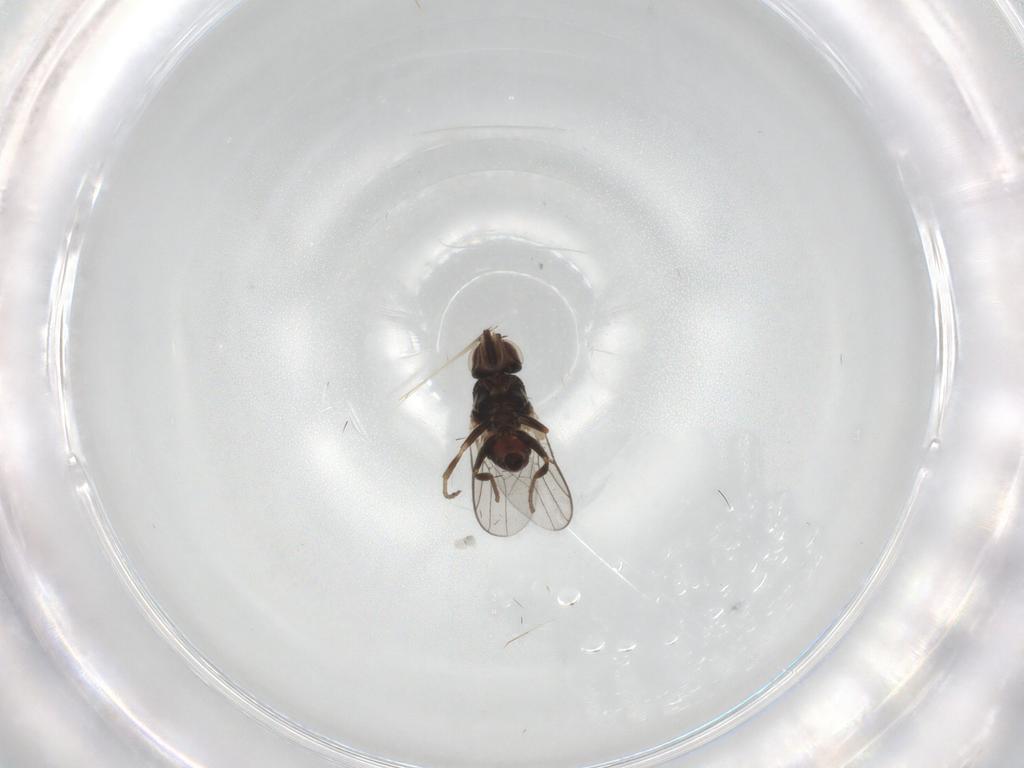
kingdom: Animalia
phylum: Arthropoda
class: Insecta
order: Diptera
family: Chloropidae
